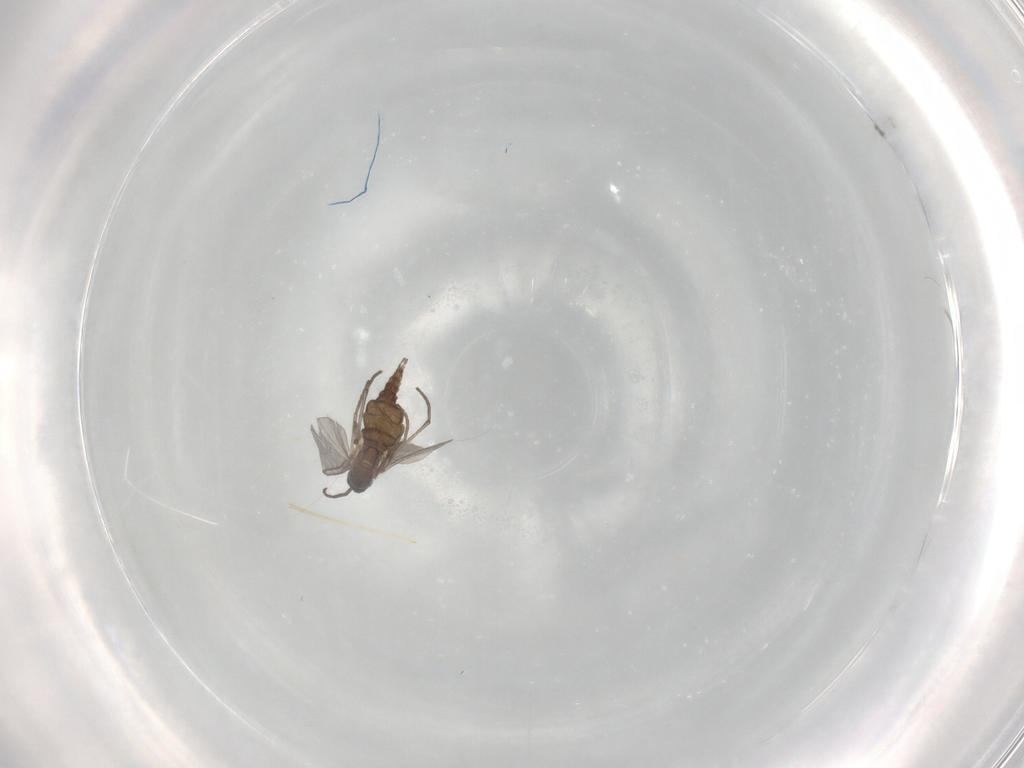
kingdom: Animalia
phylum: Arthropoda
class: Insecta
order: Diptera
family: Sciaridae
